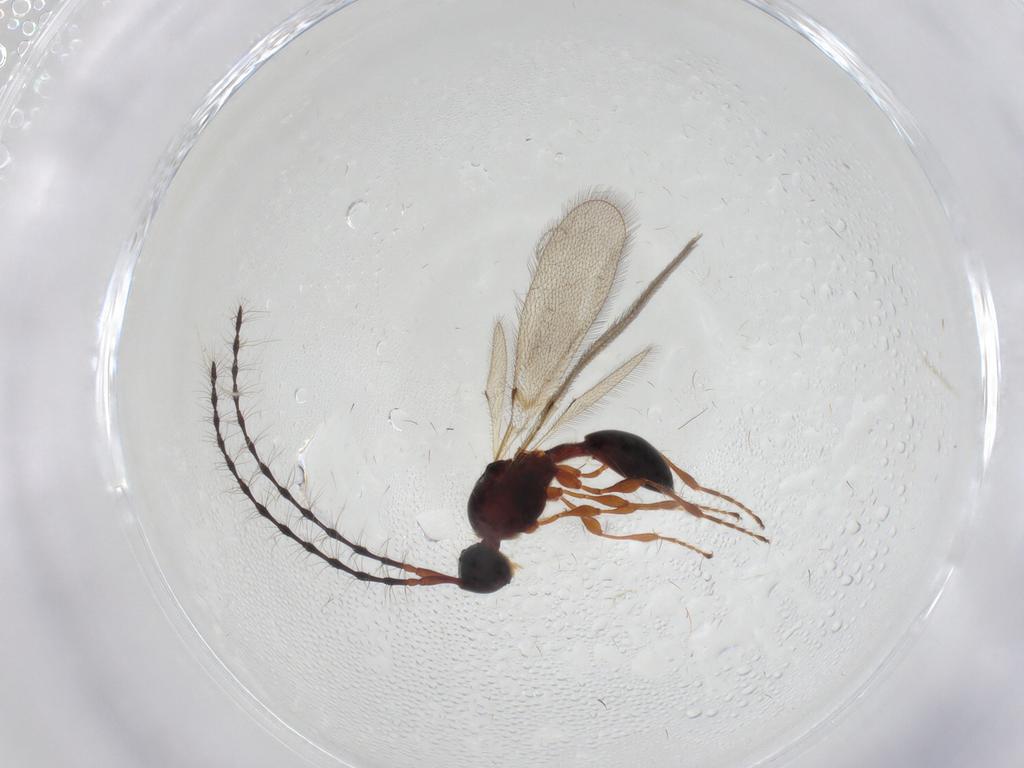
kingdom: Animalia
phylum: Arthropoda
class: Insecta
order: Hymenoptera
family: Diapriidae
